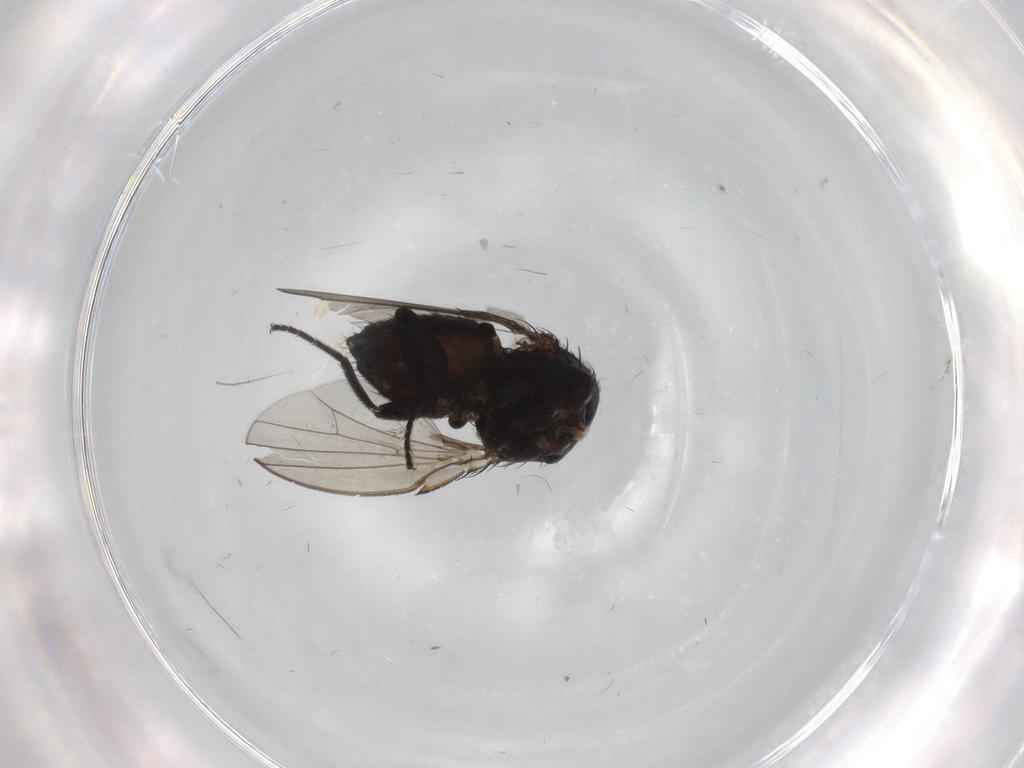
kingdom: Animalia
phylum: Arthropoda
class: Insecta
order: Diptera
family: Milichiidae
